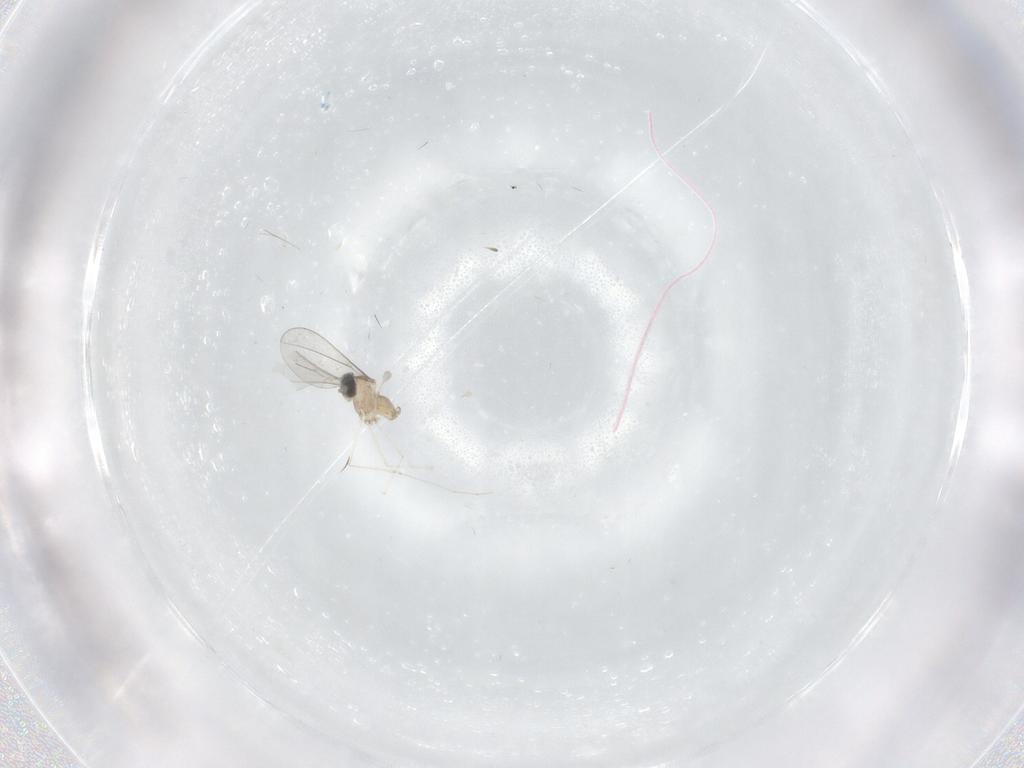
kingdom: Animalia
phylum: Arthropoda
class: Insecta
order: Diptera
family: Cecidomyiidae
